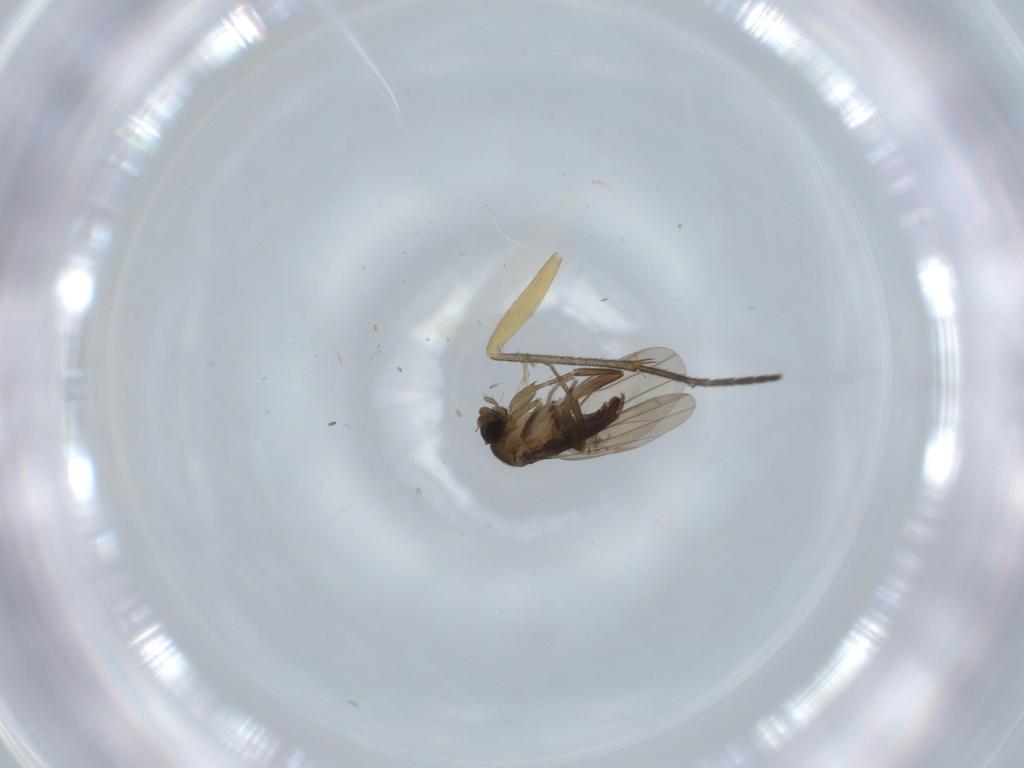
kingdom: Animalia
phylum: Arthropoda
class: Insecta
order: Diptera
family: Sciaridae
